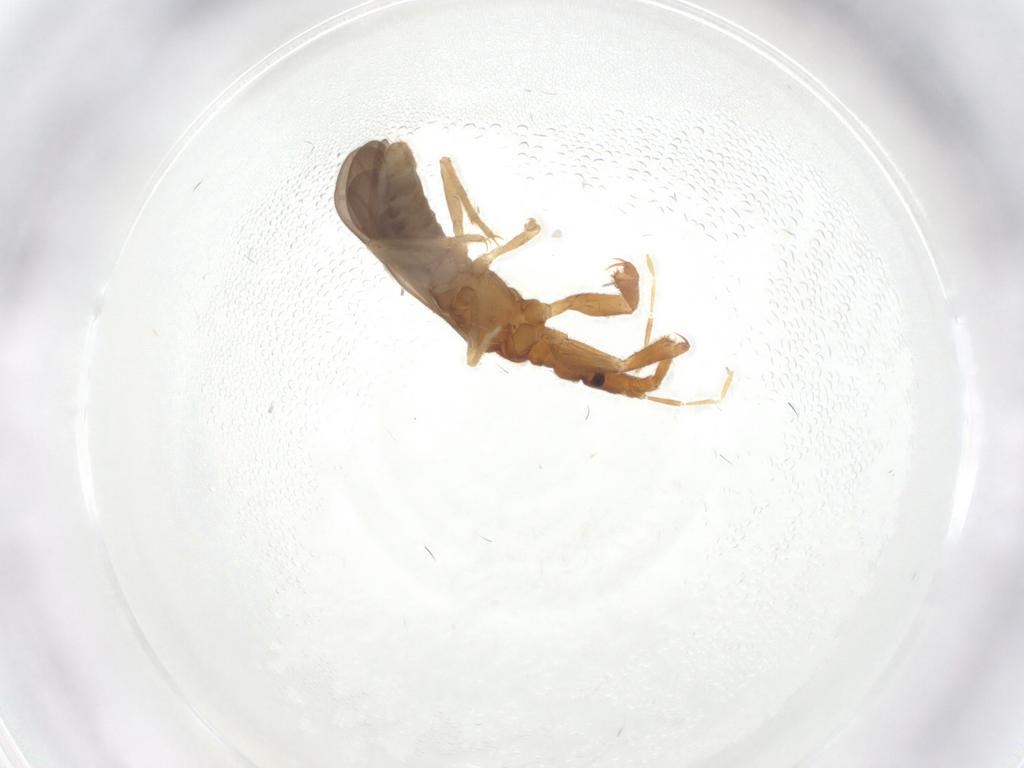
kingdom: Animalia
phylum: Arthropoda
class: Insecta
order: Hemiptera
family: Enicocephalidae
